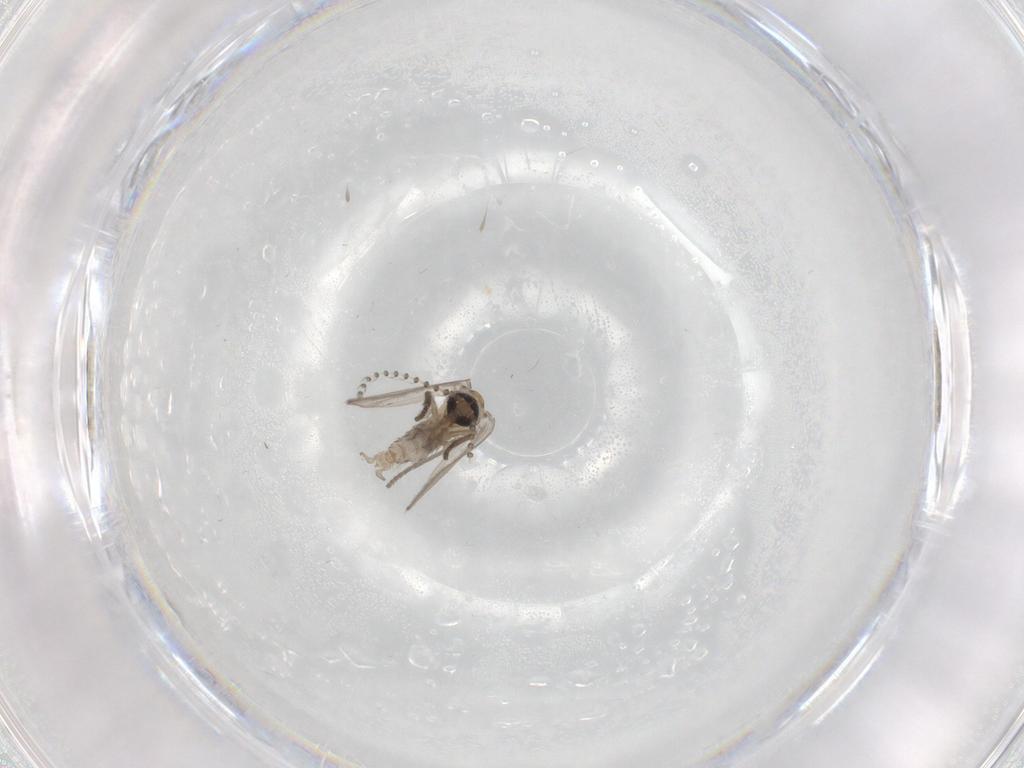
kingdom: Animalia
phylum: Arthropoda
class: Insecta
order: Diptera
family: Psychodidae
